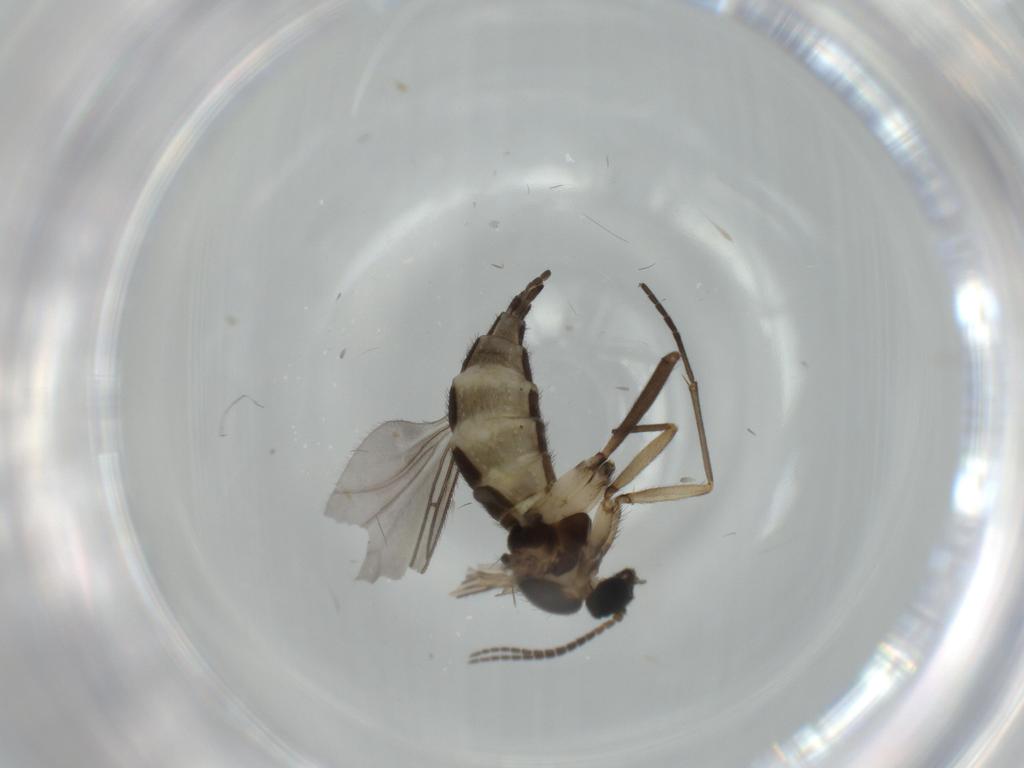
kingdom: Animalia
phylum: Arthropoda
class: Insecta
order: Diptera
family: Sciaridae
